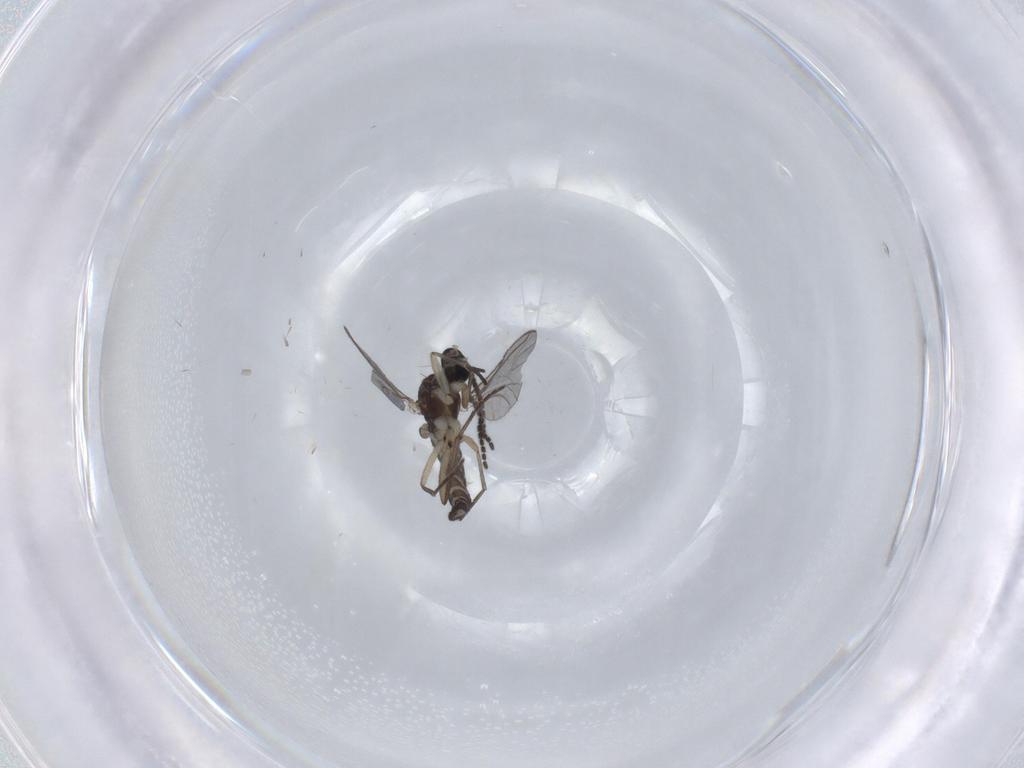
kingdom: Animalia
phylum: Arthropoda
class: Insecta
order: Diptera
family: Sciaridae
